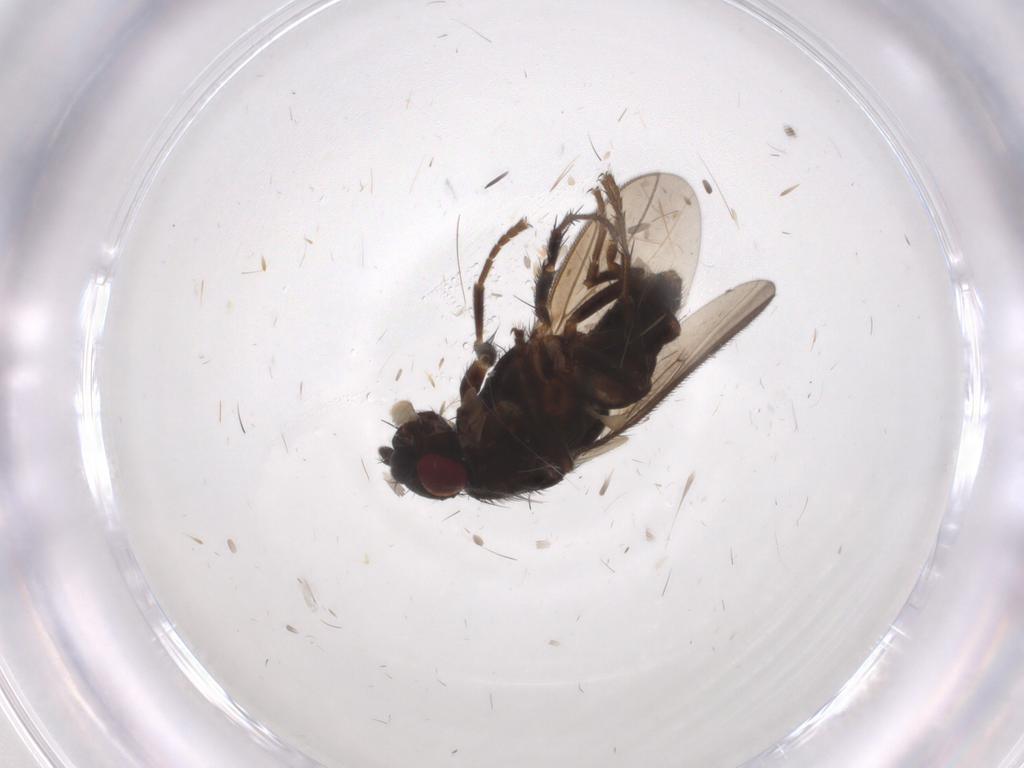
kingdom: Animalia
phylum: Arthropoda
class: Insecta
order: Diptera
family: Sphaeroceridae
